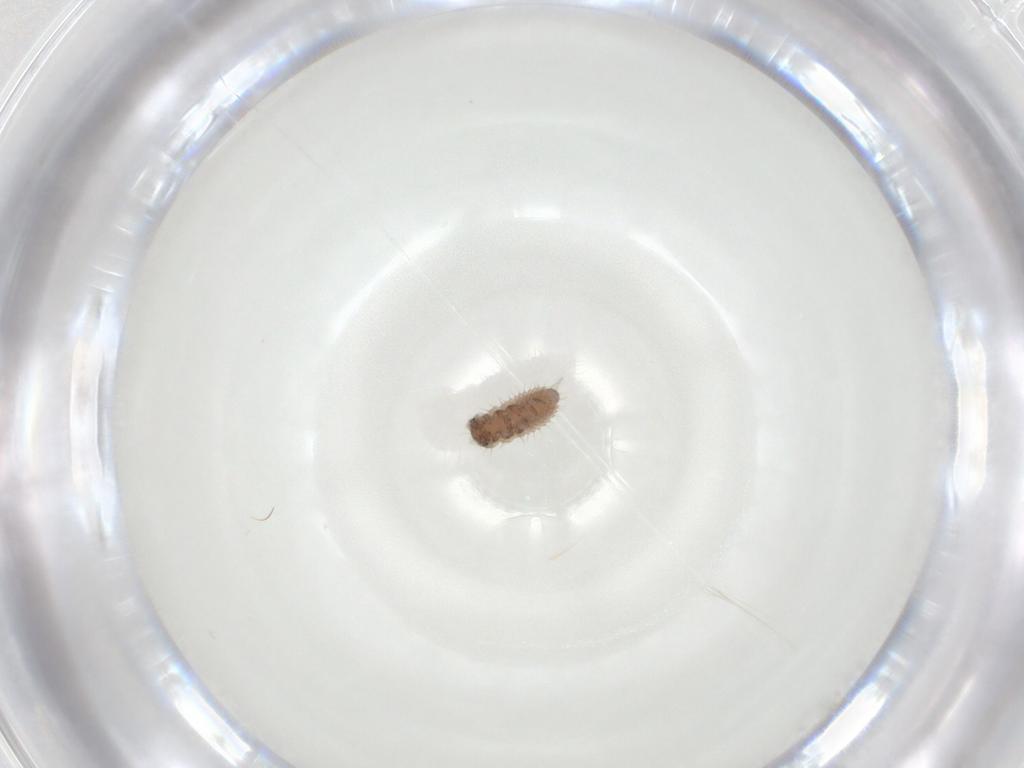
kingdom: Animalia
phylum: Arthropoda
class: Insecta
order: Coleoptera
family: Coccinellidae
